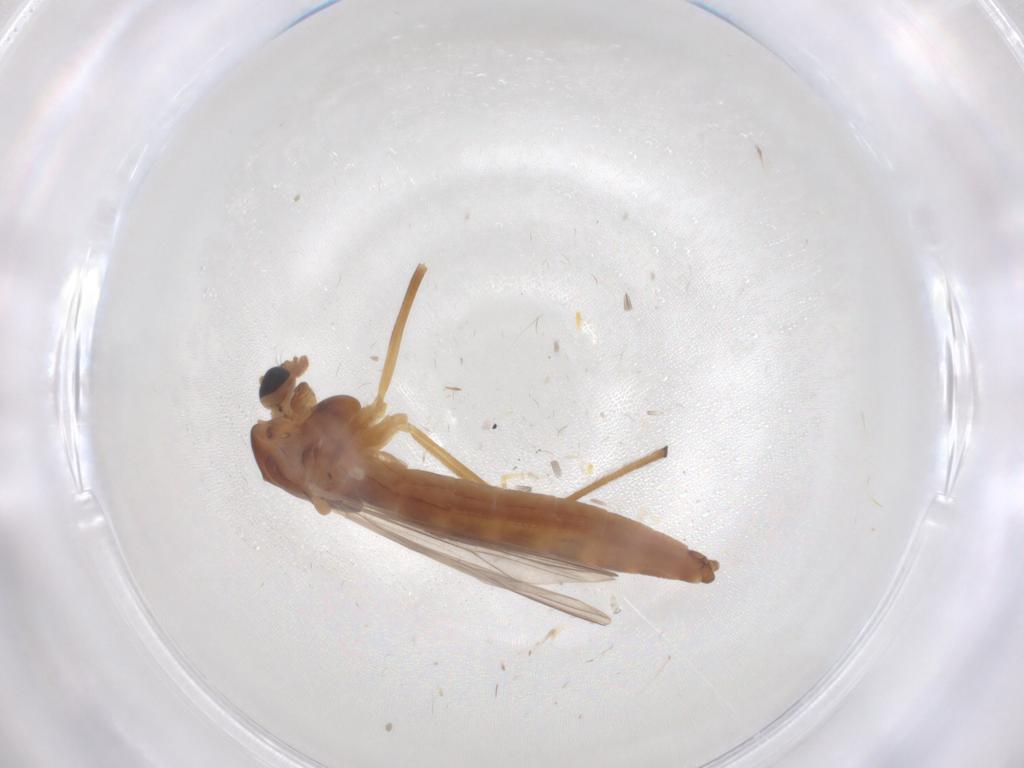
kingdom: Animalia
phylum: Arthropoda
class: Insecta
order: Diptera
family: Chironomidae
